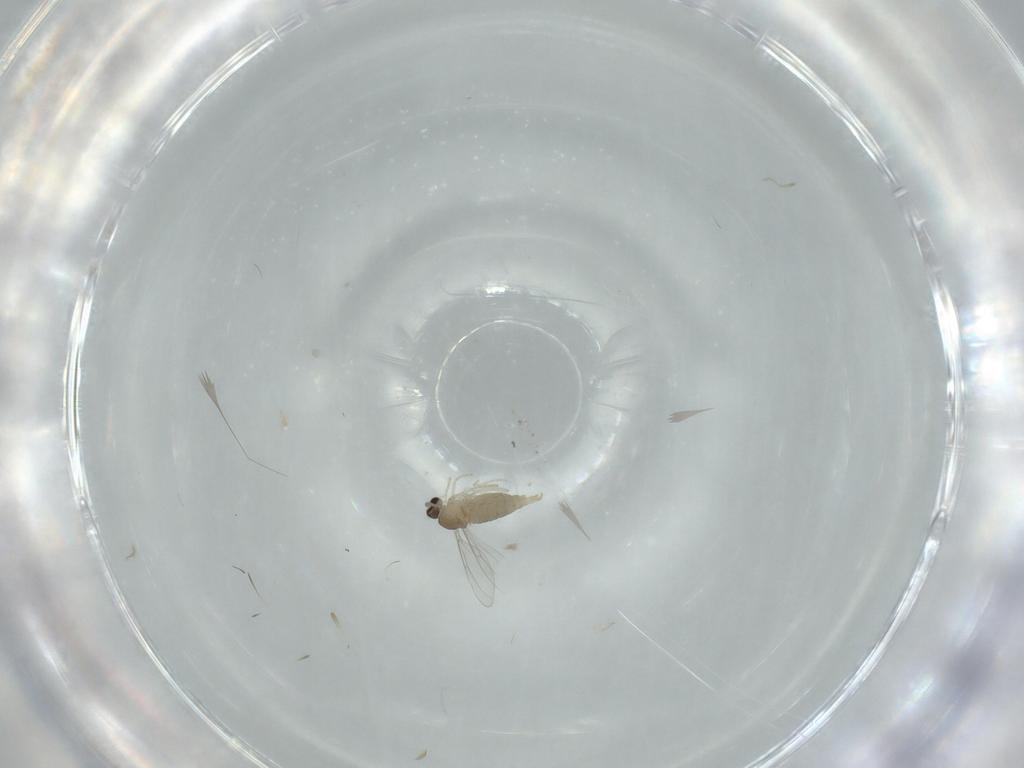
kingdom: Animalia
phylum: Arthropoda
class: Insecta
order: Diptera
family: Cecidomyiidae
